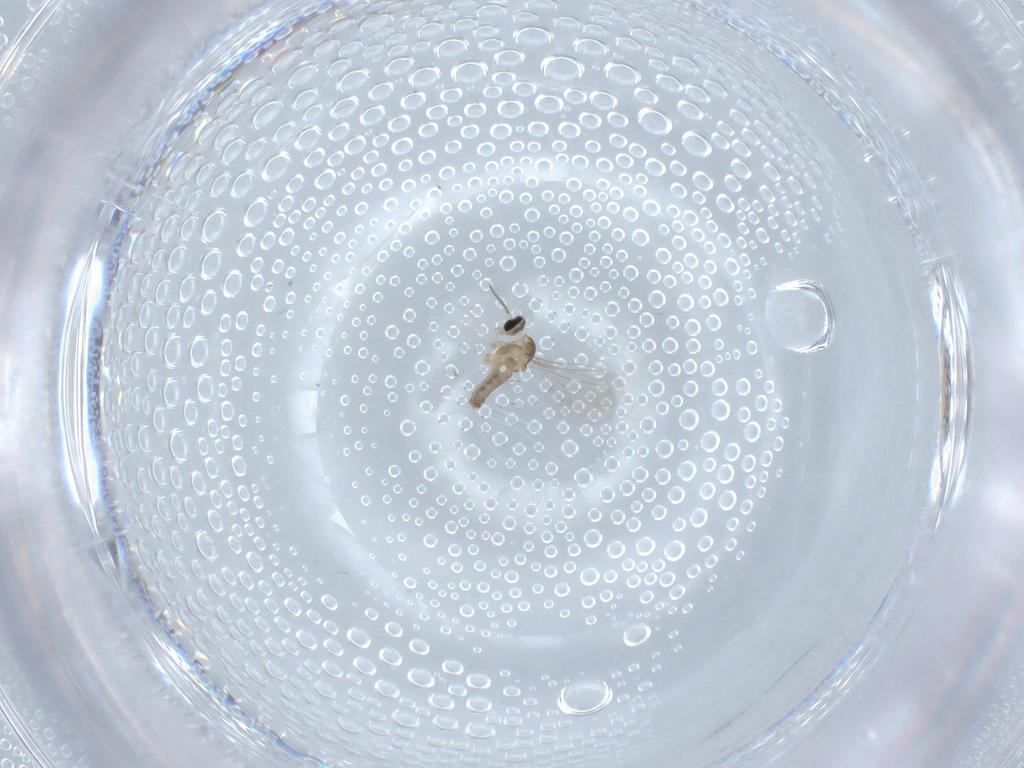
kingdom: Animalia
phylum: Arthropoda
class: Insecta
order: Diptera
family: Cecidomyiidae
